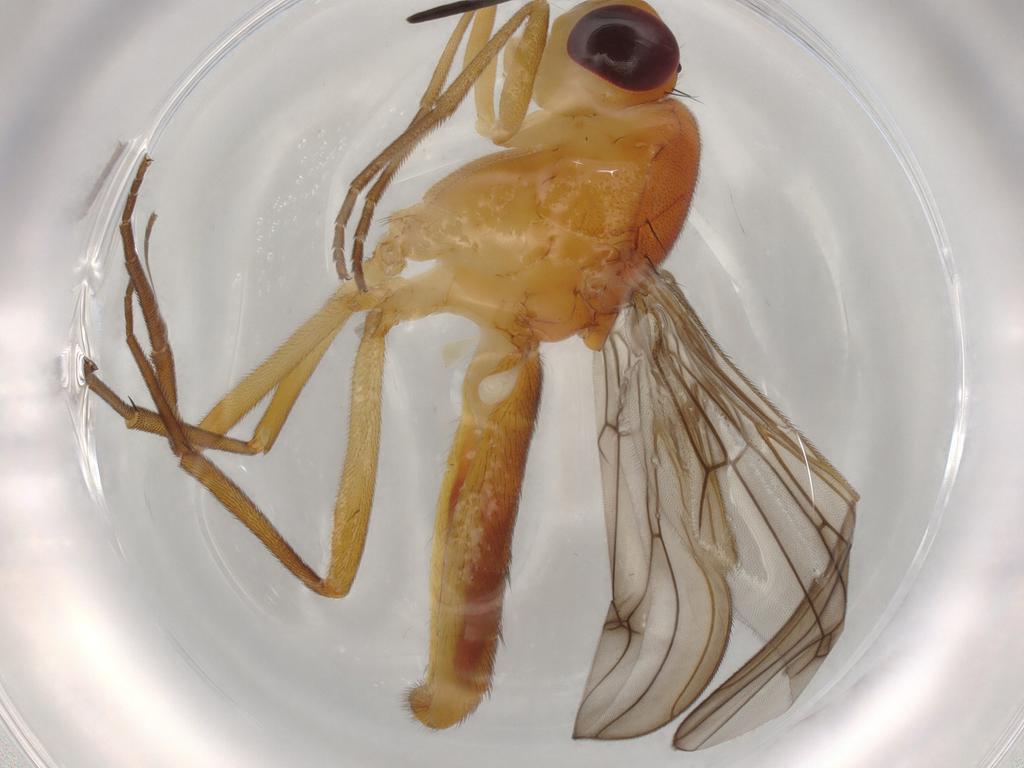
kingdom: Animalia
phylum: Arthropoda
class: Insecta
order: Diptera
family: Psilidae
